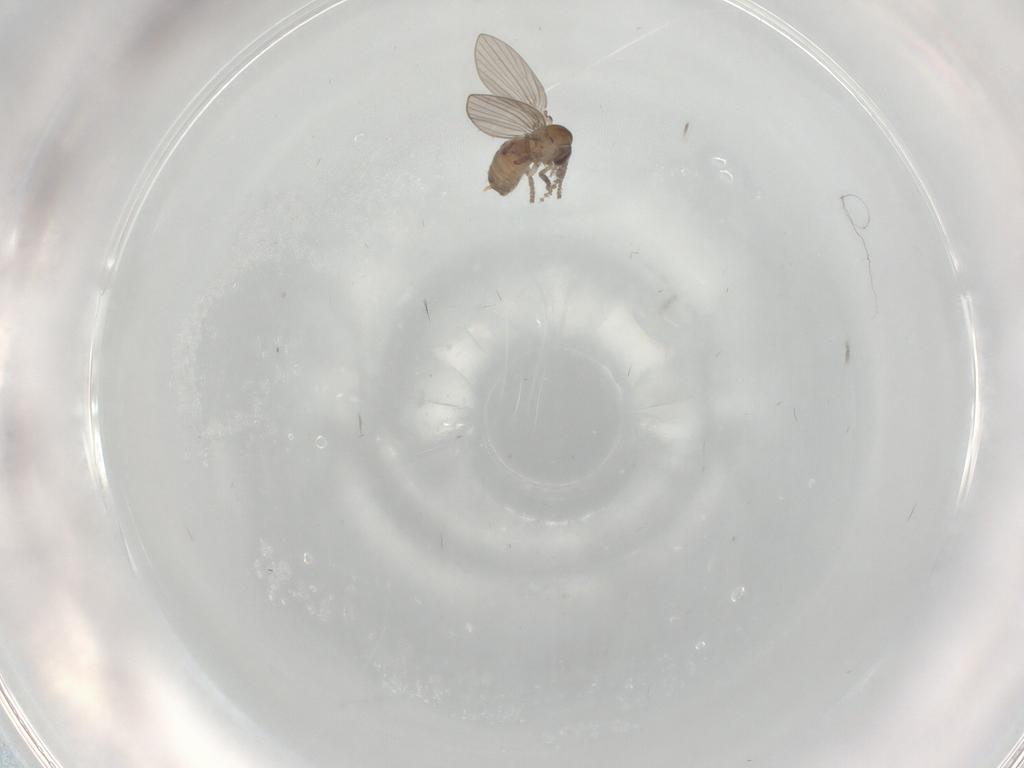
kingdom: Animalia
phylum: Arthropoda
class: Insecta
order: Diptera
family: Psychodidae
